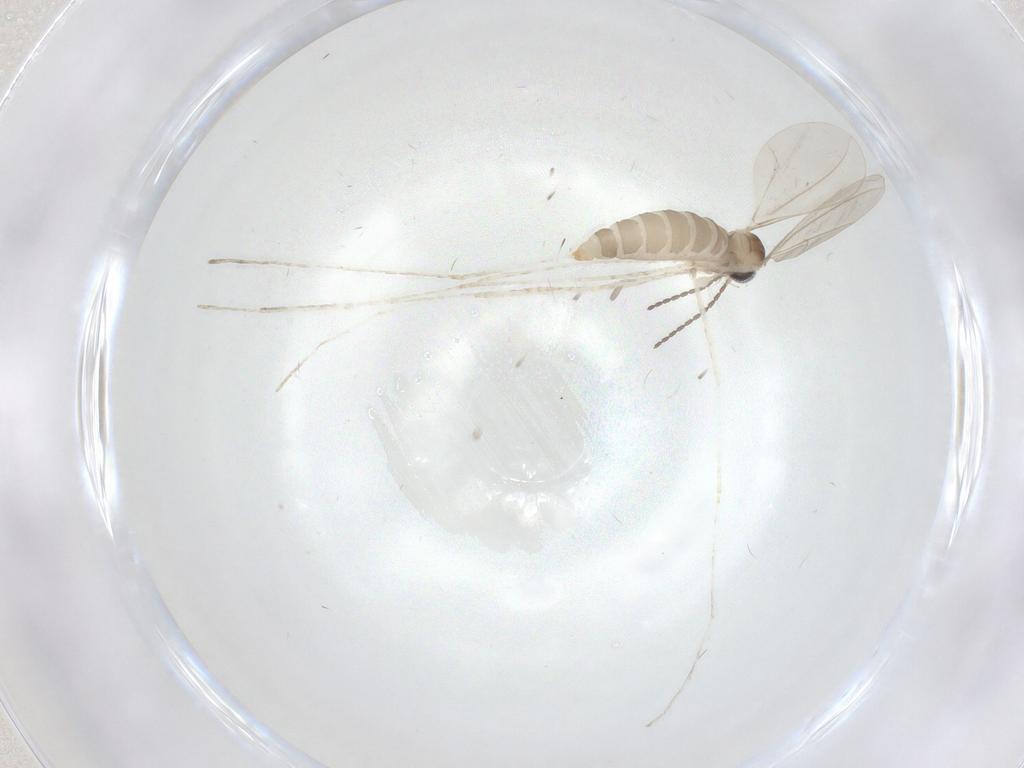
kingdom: Animalia
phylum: Arthropoda
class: Insecta
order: Diptera
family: Cecidomyiidae
